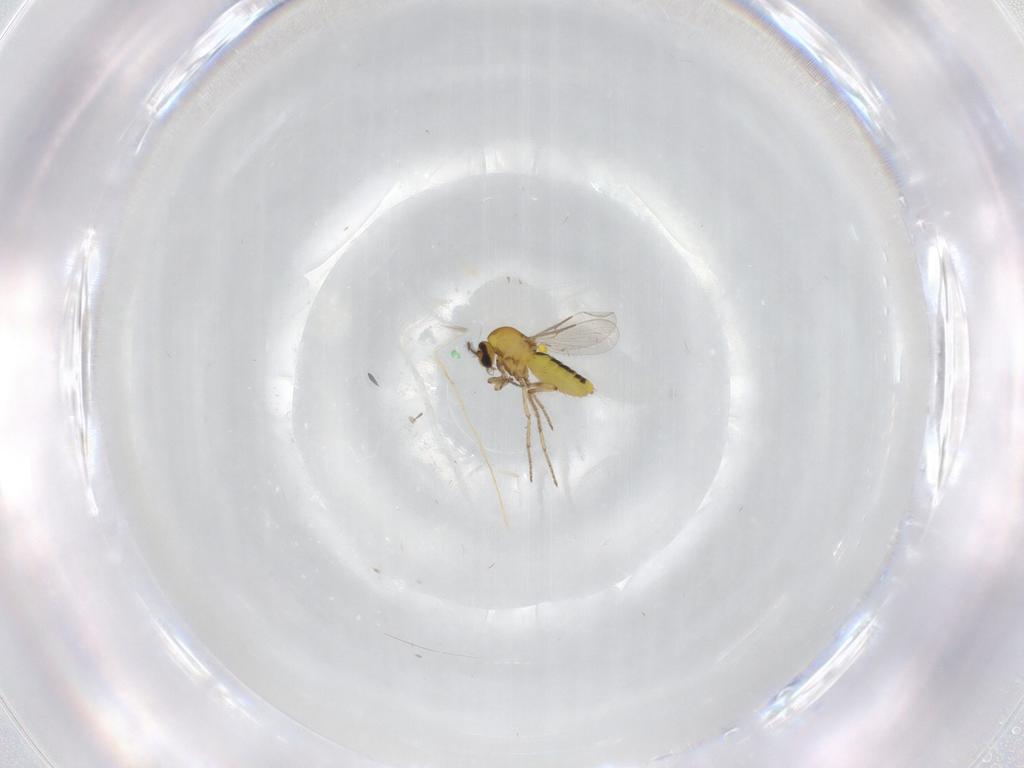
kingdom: Animalia
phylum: Arthropoda
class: Insecta
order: Diptera
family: Ceratopogonidae
